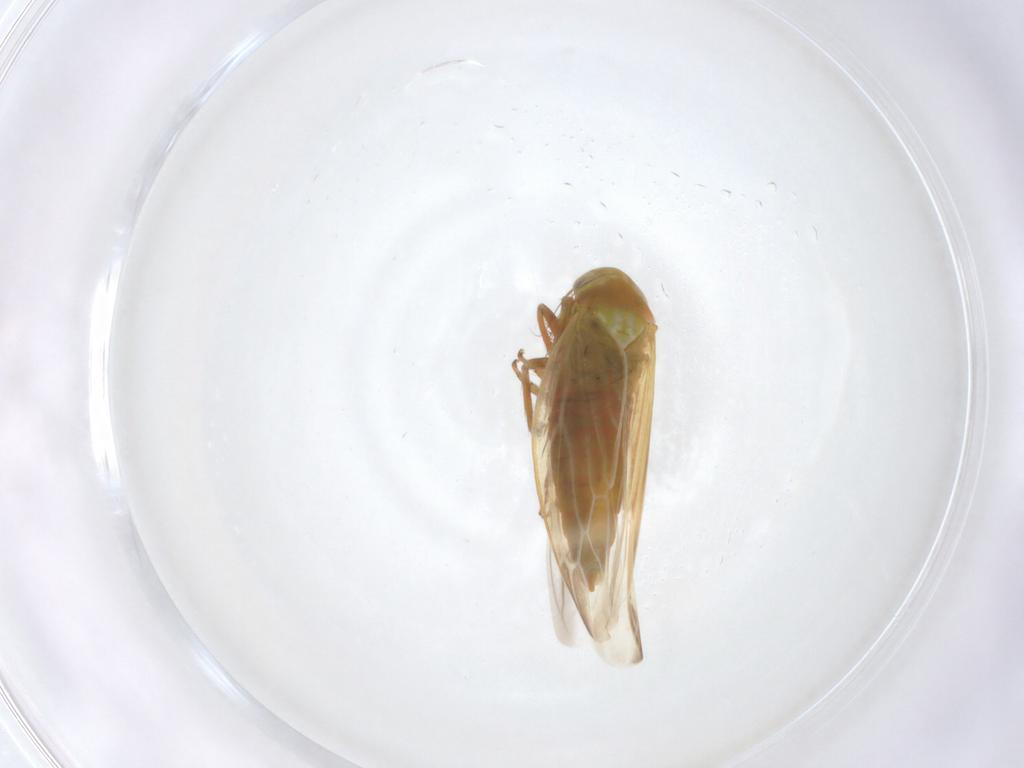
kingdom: Animalia
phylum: Arthropoda
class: Insecta
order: Hemiptera
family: Cicadellidae
